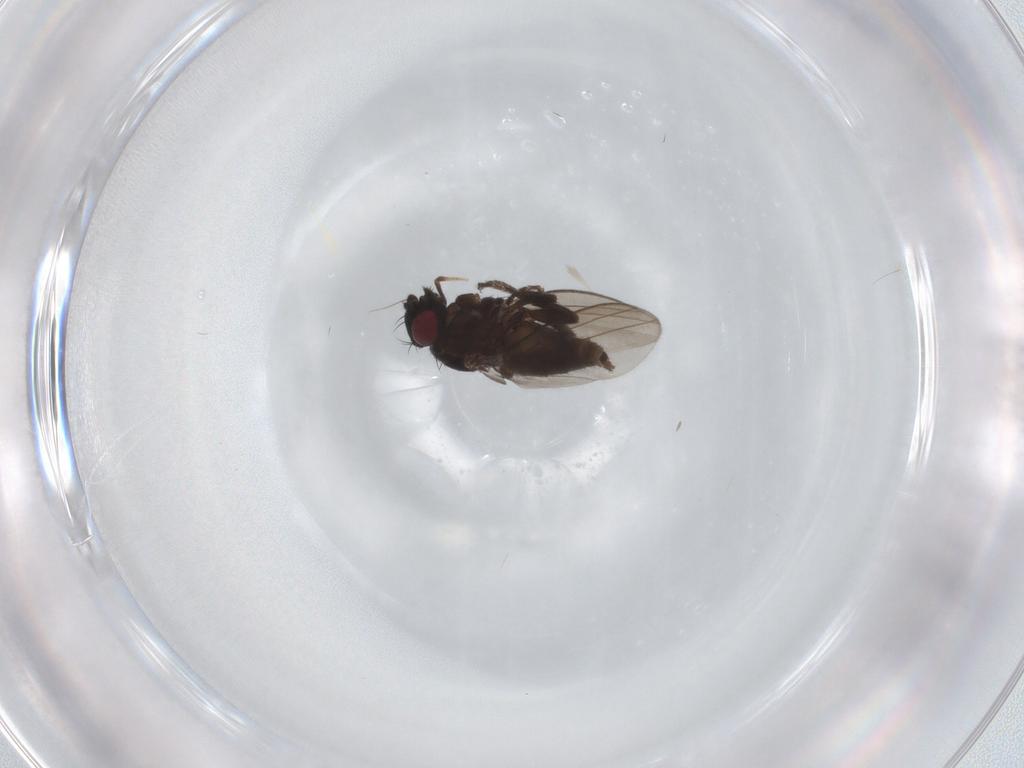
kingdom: Animalia
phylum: Arthropoda
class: Insecta
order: Diptera
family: Milichiidae
